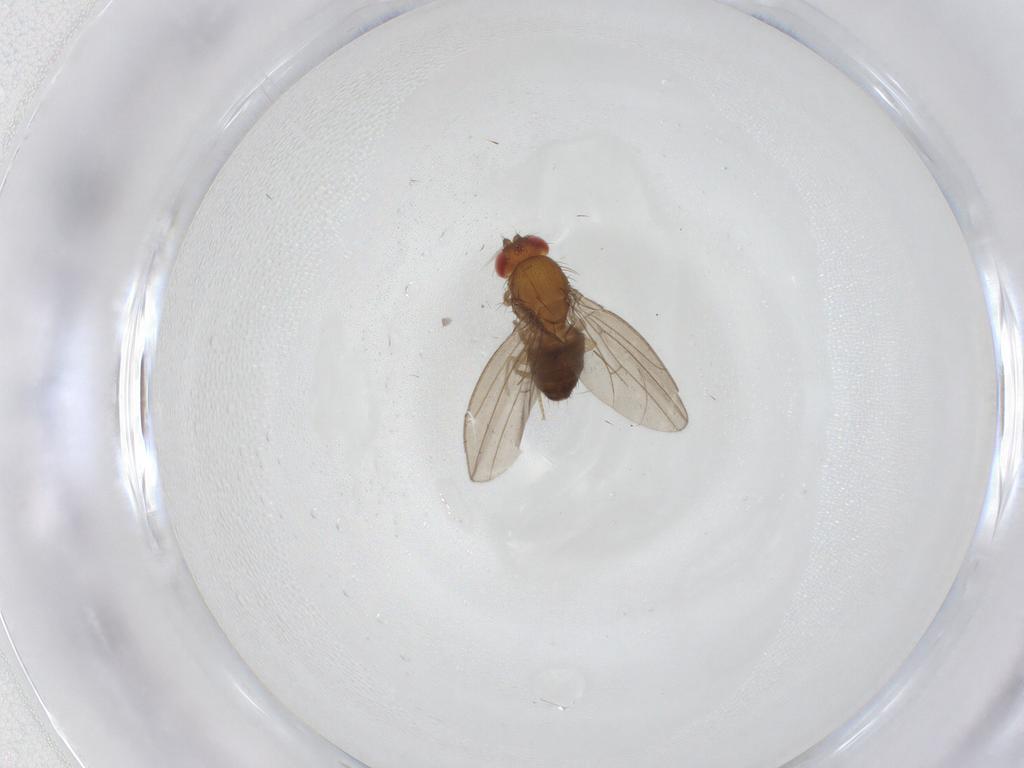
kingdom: Animalia
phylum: Arthropoda
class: Insecta
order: Diptera
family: Drosophilidae
